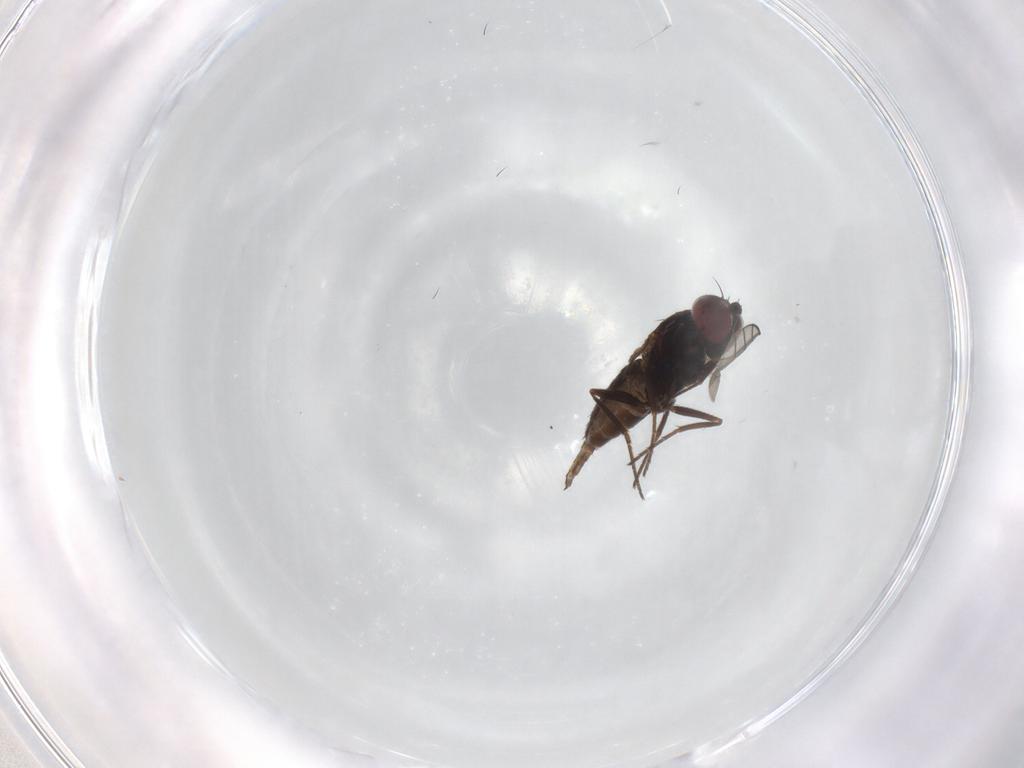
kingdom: Animalia
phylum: Arthropoda
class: Insecta
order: Diptera
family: Dolichopodidae
